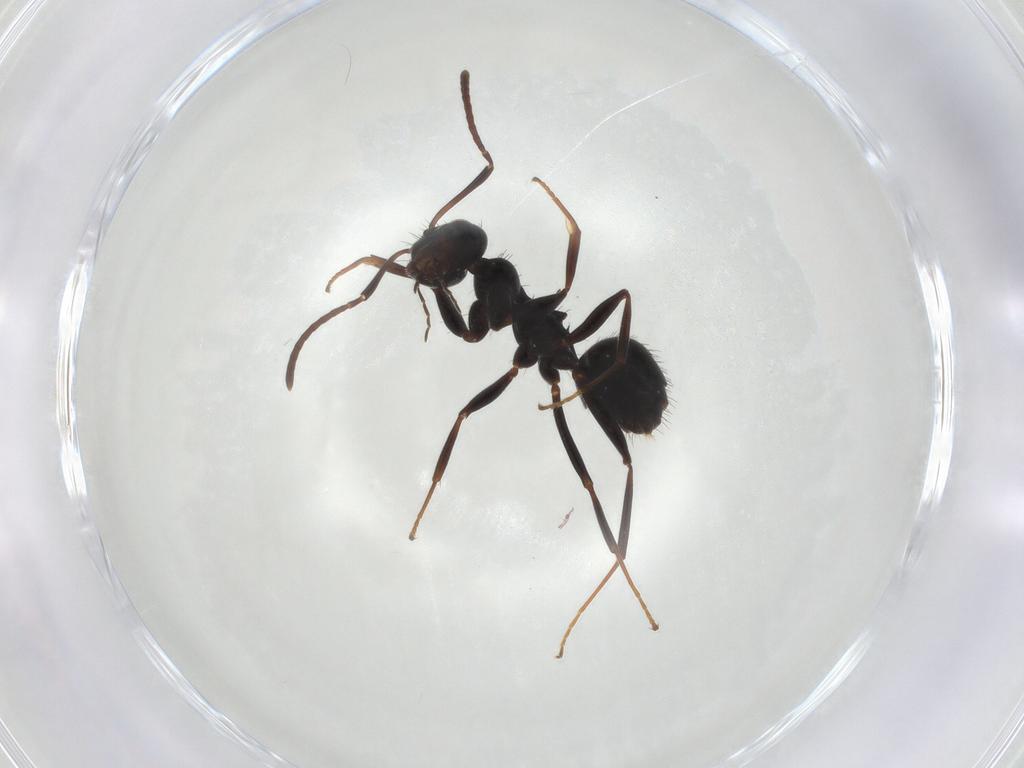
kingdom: Animalia
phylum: Arthropoda
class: Insecta
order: Hymenoptera
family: Formicidae
